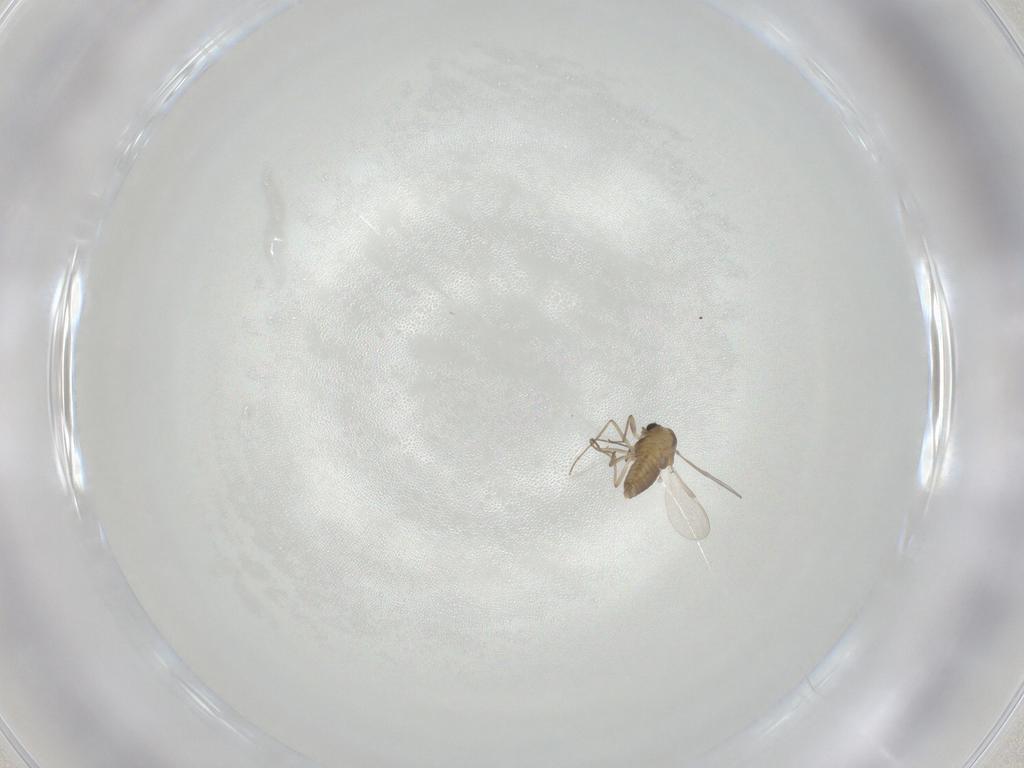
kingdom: Animalia
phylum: Arthropoda
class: Insecta
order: Diptera
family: Chironomidae
